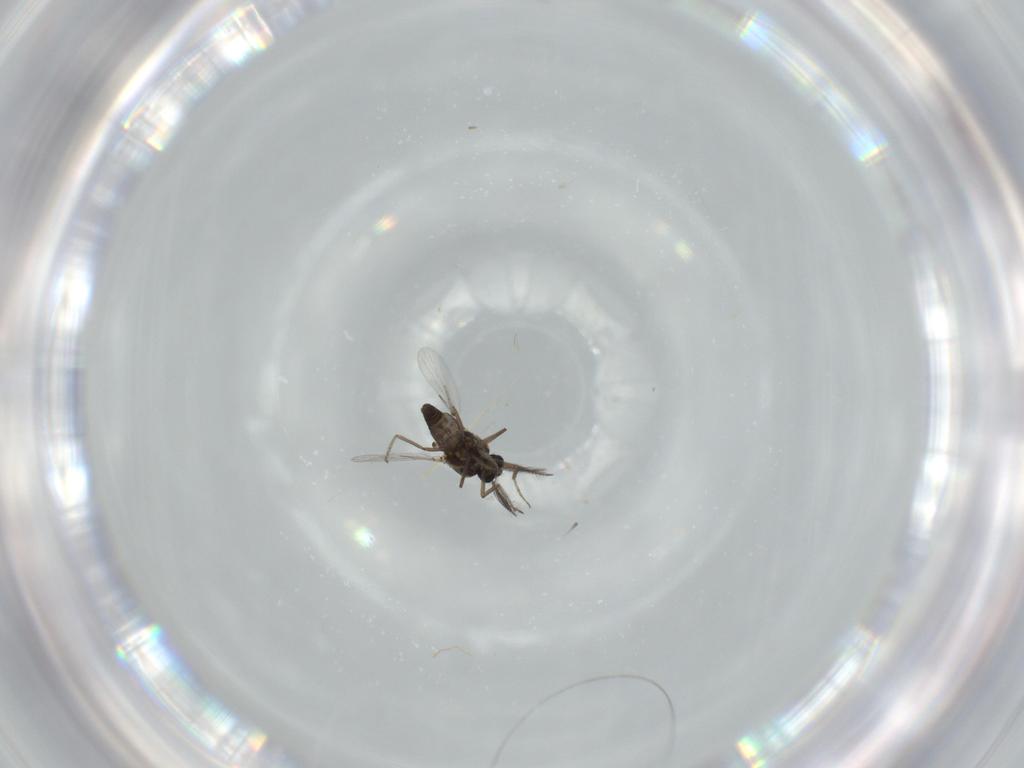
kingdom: Animalia
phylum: Arthropoda
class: Insecta
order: Diptera
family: Ceratopogonidae
